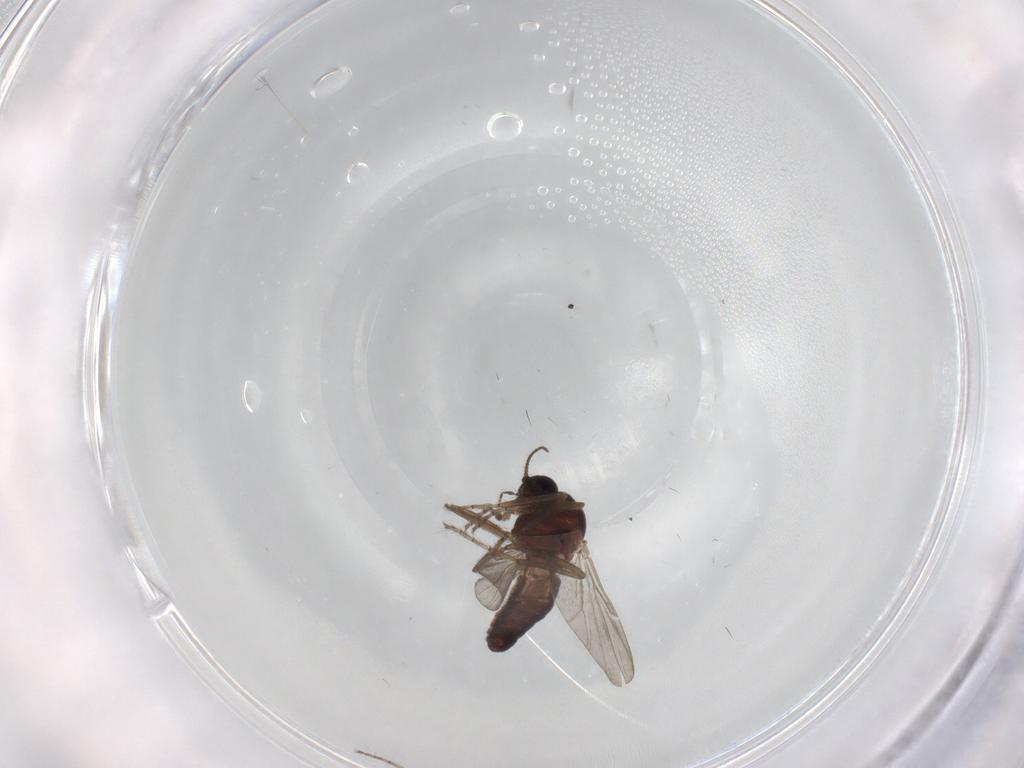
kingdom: Animalia
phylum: Arthropoda
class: Insecta
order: Diptera
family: Ceratopogonidae
